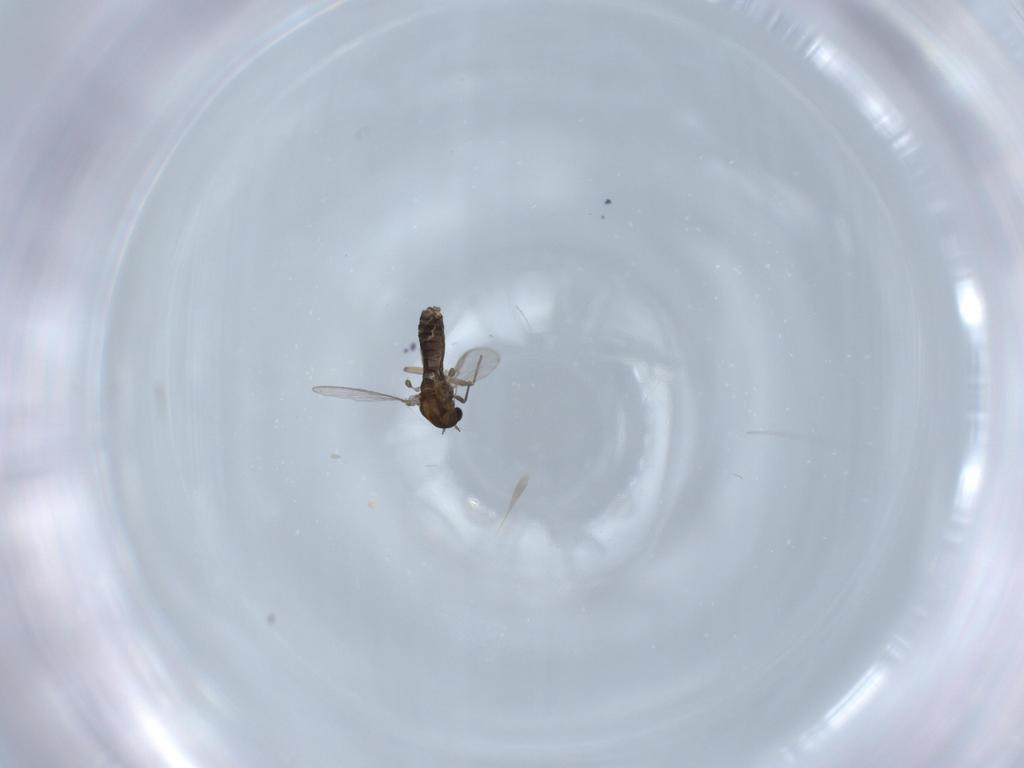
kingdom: Animalia
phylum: Arthropoda
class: Insecta
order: Diptera
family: Chironomidae
